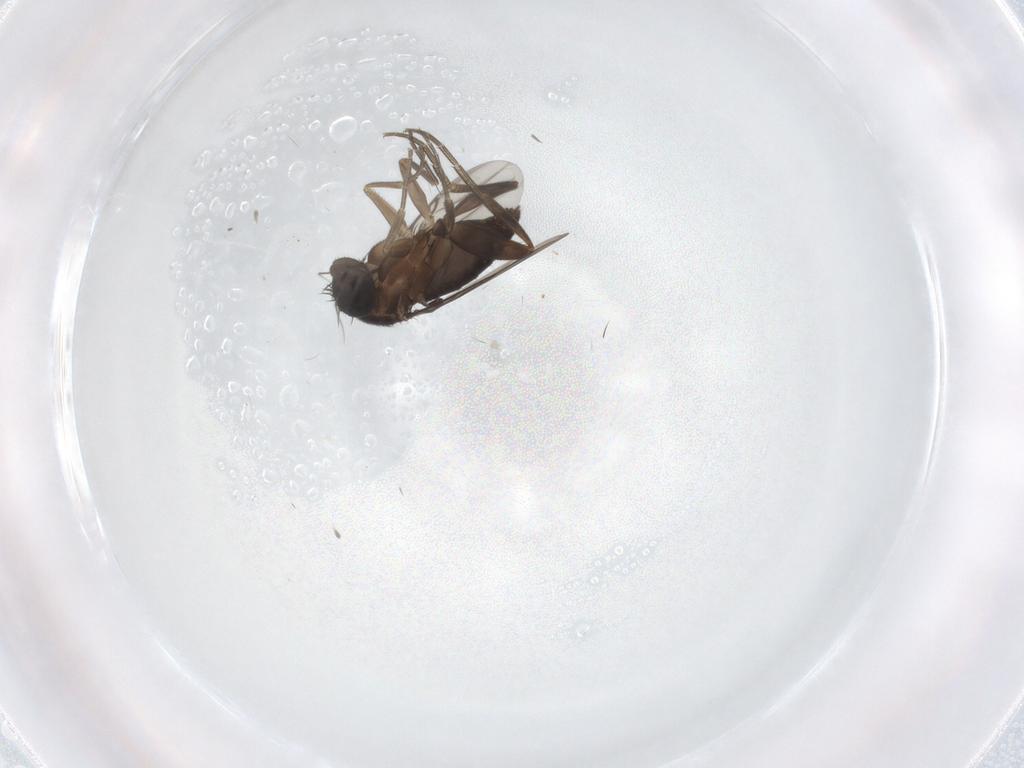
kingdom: Animalia
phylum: Arthropoda
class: Insecta
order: Diptera
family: Phoridae
